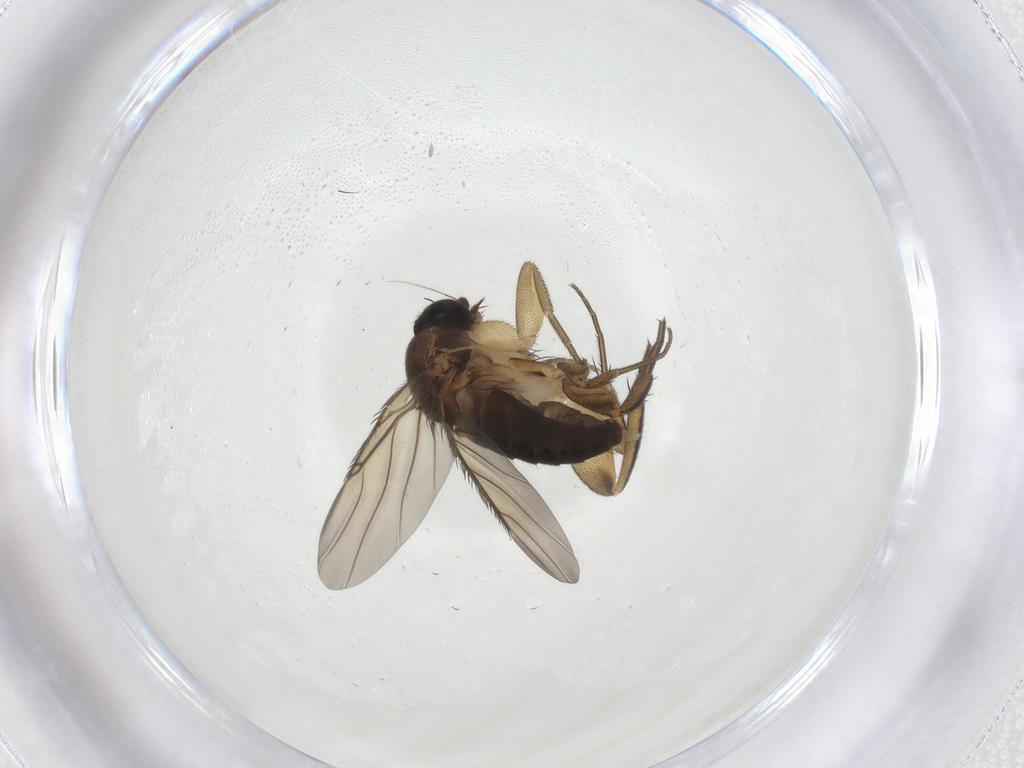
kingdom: Animalia
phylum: Arthropoda
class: Insecta
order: Diptera
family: Phoridae
